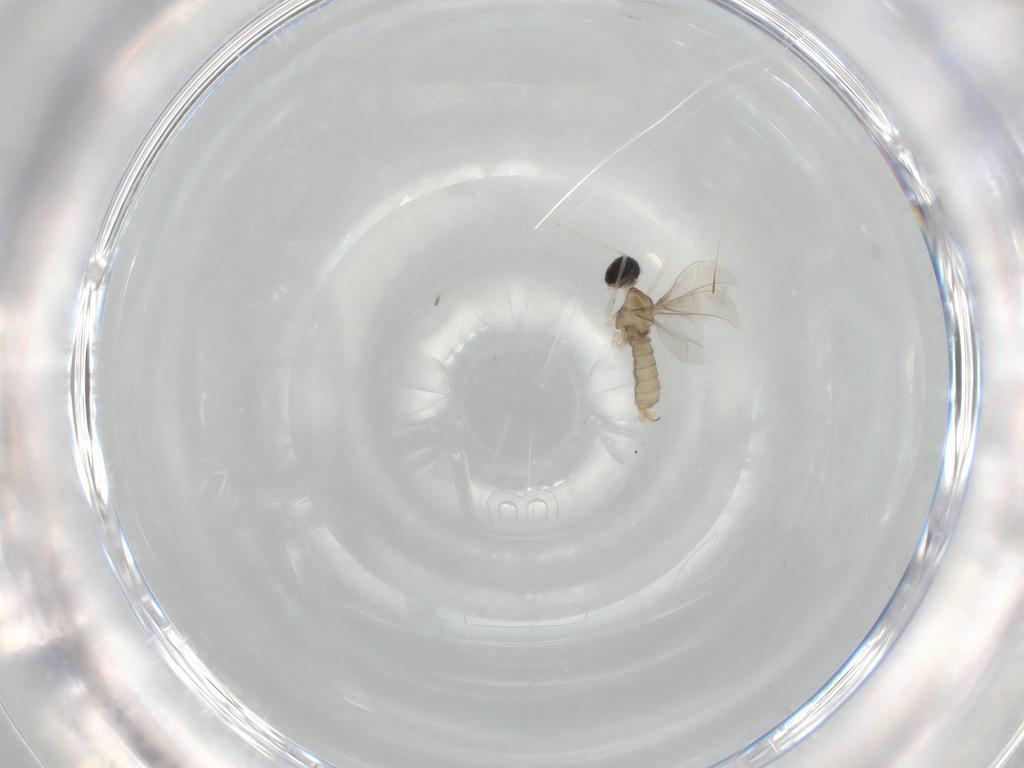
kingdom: Animalia
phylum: Arthropoda
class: Insecta
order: Diptera
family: Cecidomyiidae
